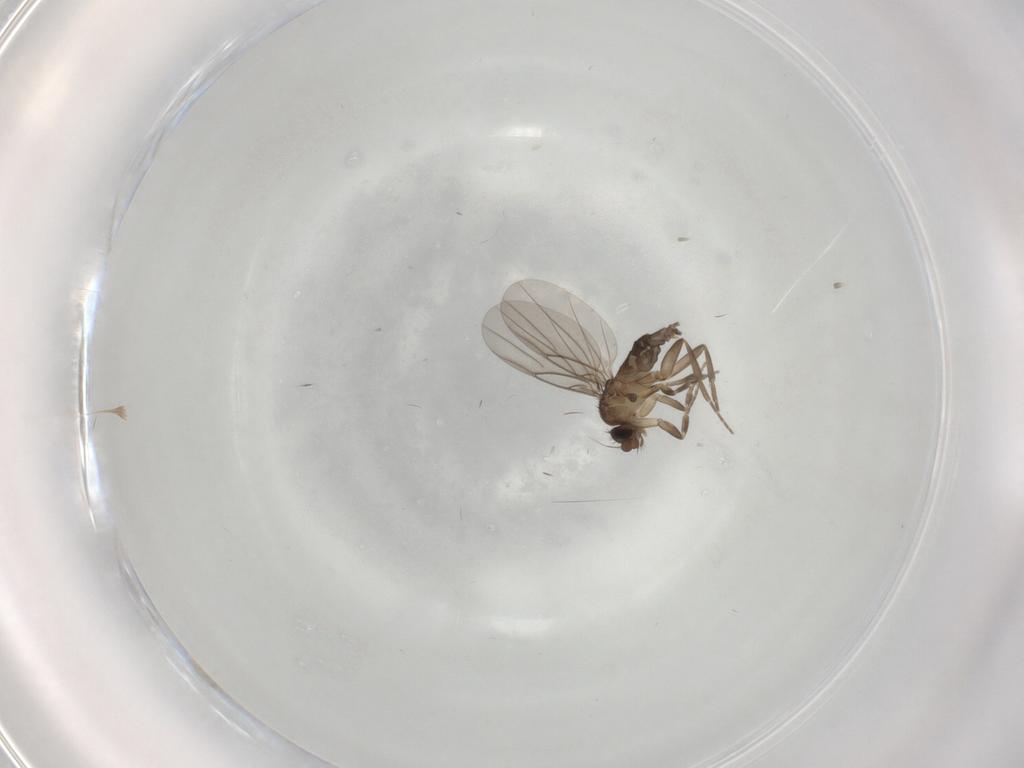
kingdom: Animalia
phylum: Arthropoda
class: Insecta
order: Diptera
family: Phoridae
